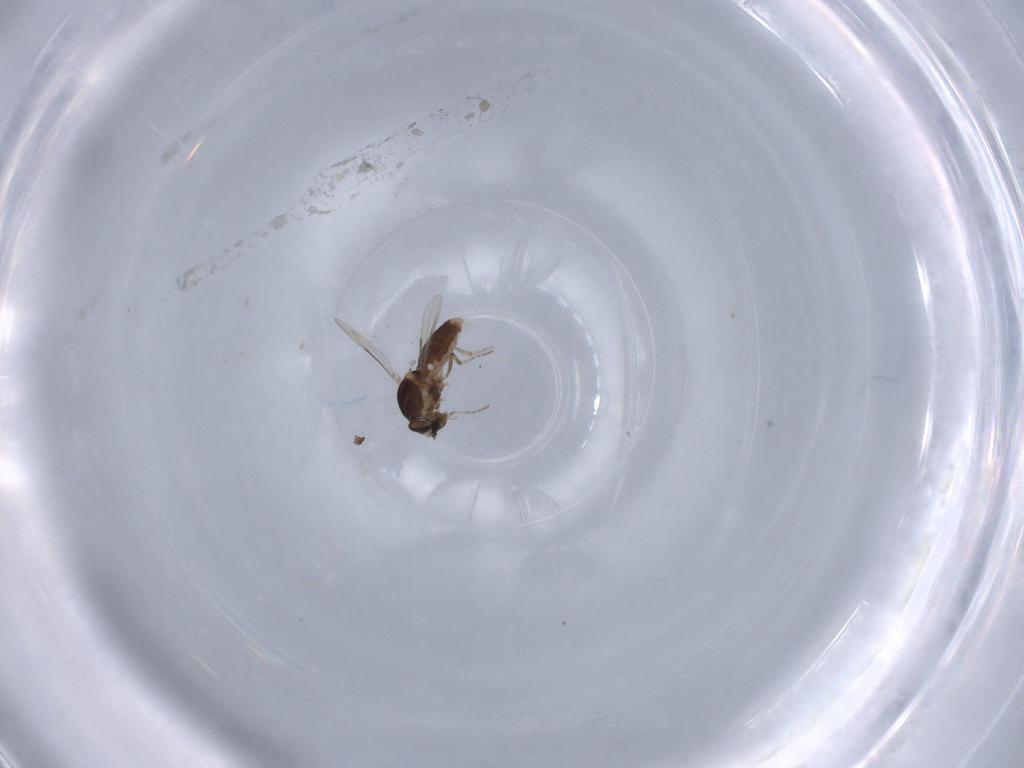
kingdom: Animalia
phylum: Arthropoda
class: Insecta
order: Diptera
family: Ceratopogonidae
